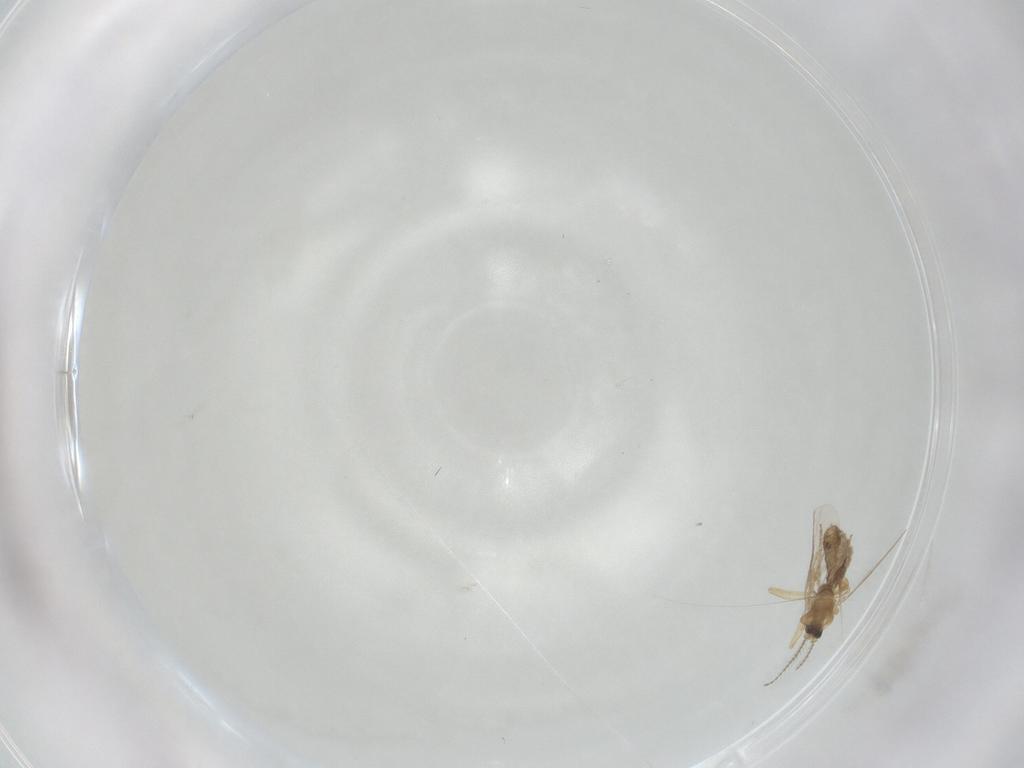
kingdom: Animalia
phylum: Arthropoda
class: Insecta
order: Diptera
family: Ceratopogonidae
